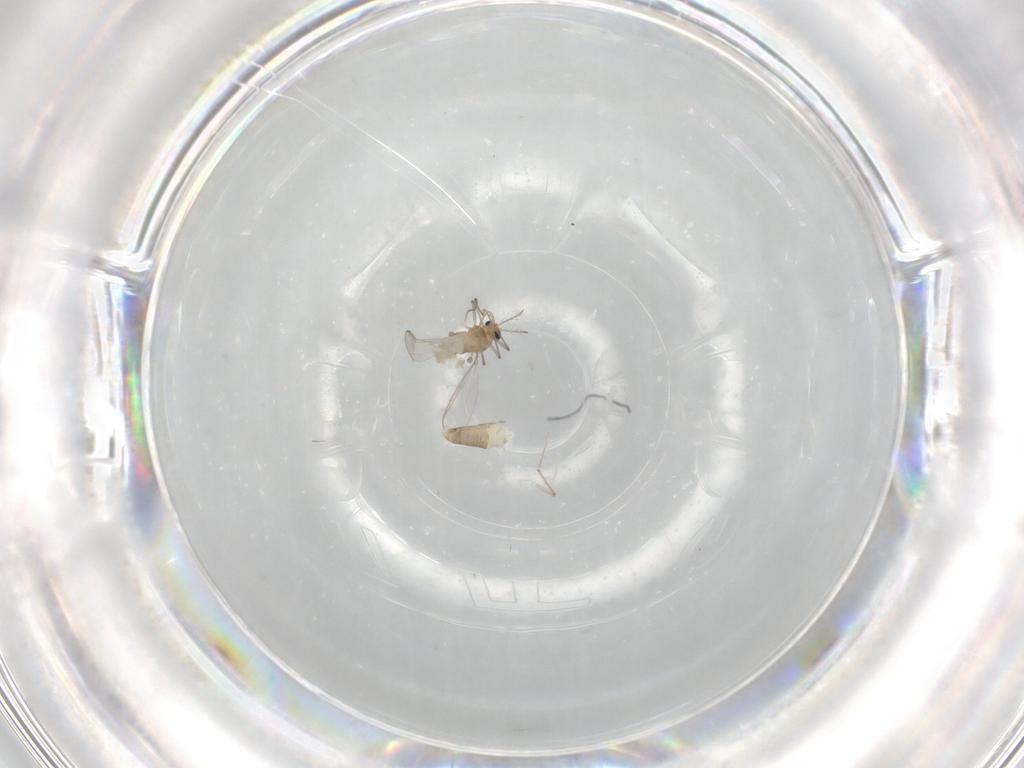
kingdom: Animalia
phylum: Arthropoda
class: Insecta
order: Diptera
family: Chironomidae
